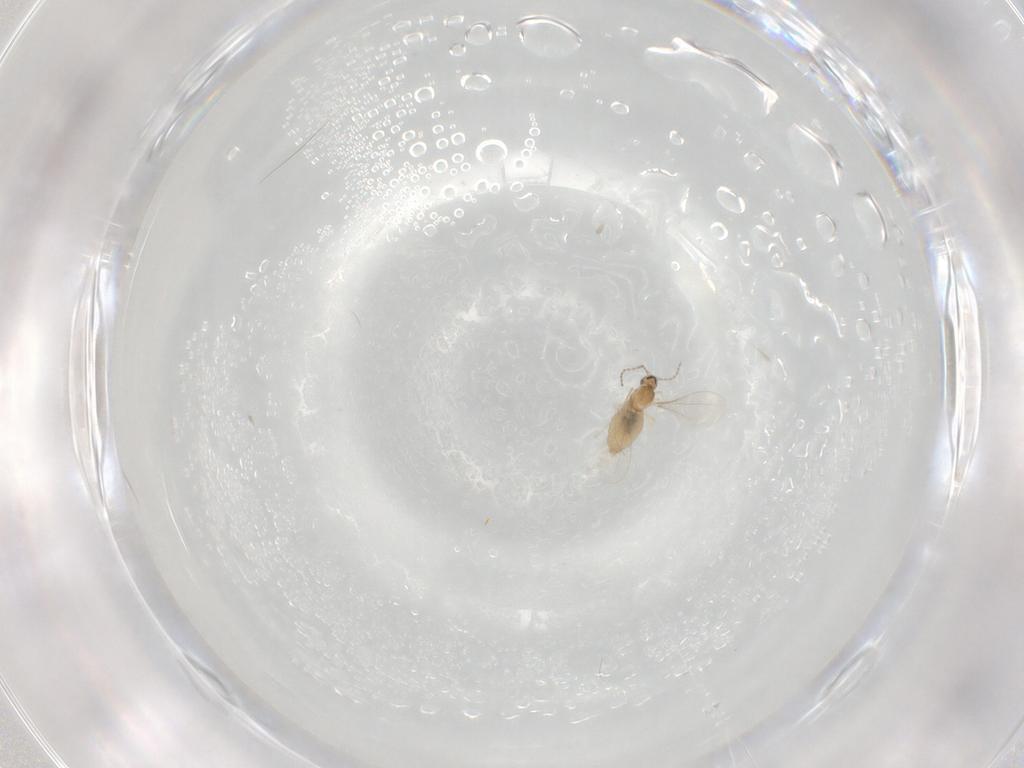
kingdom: Animalia
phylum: Arthropoda
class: Insecta
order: Diptera
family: Cecidomyiidae
